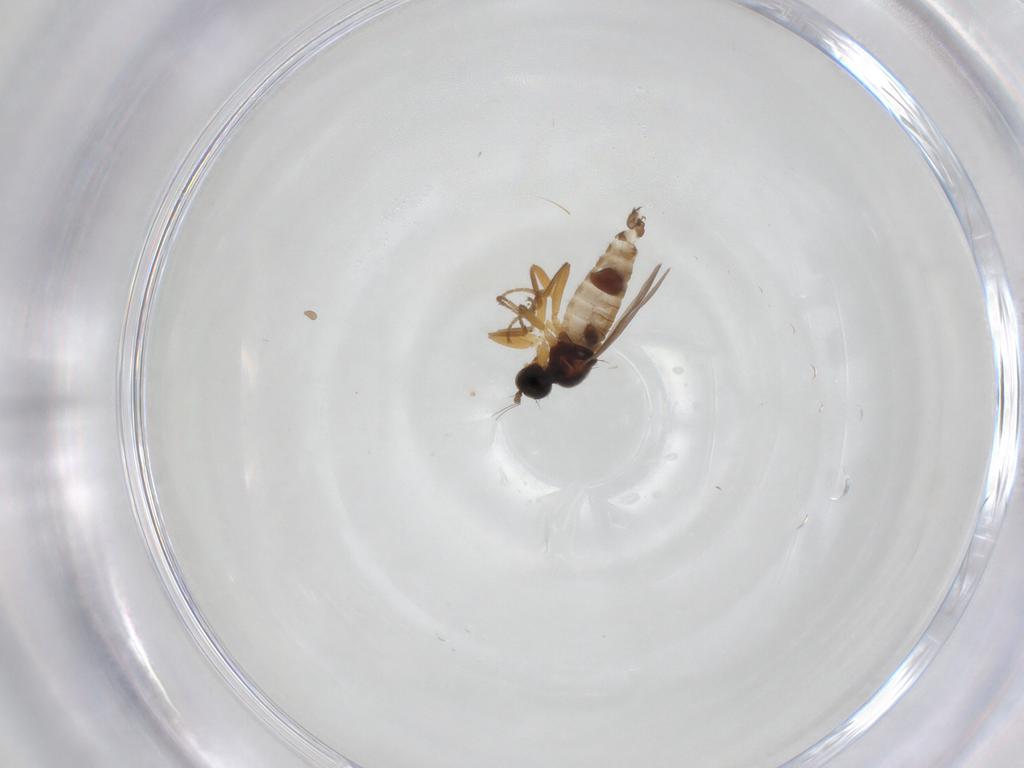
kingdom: Animalia
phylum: Arthropoda
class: Insecta
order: Diptera
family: Hybotidae
